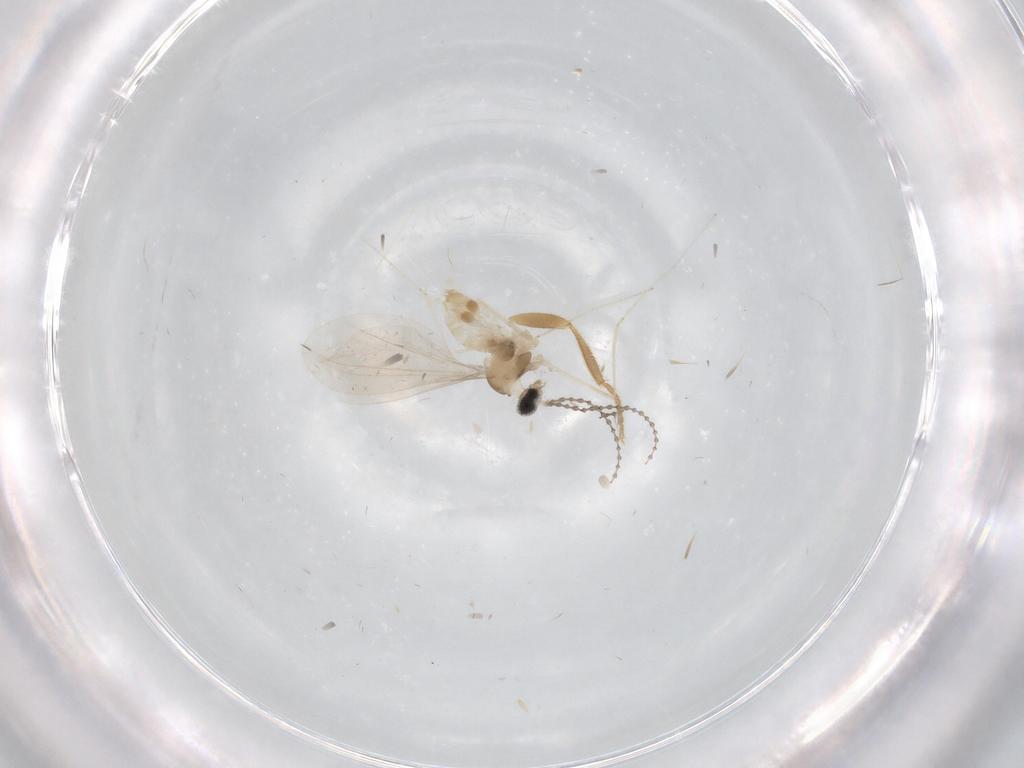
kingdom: Animalia
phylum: Arthropoda
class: Insecta
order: Diptera
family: Cecidomyiidae
